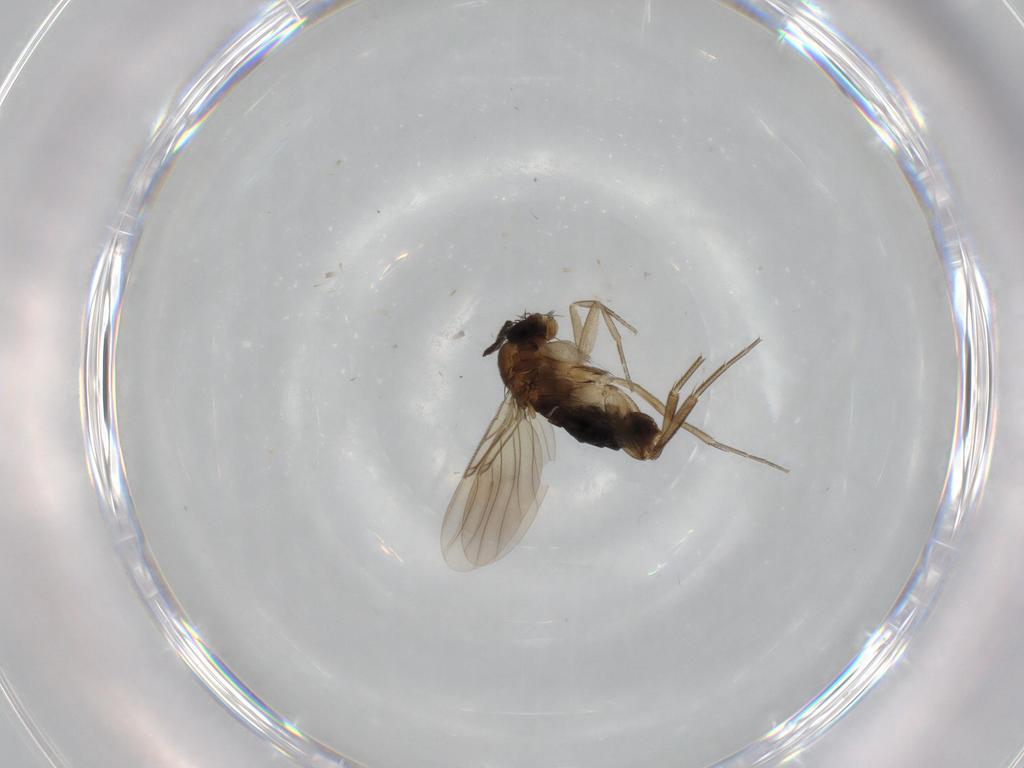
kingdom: Animalia
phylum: Arthropoda
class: Insecta
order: Diptera
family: Phoridae
